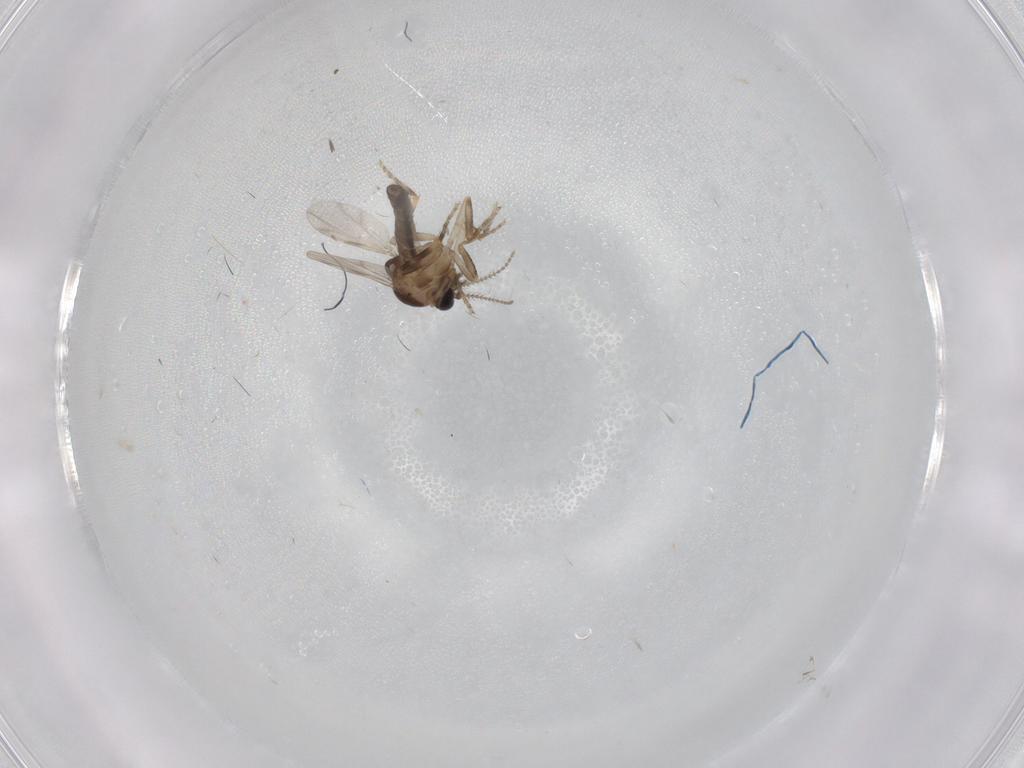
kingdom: Animalia
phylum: Arthropoda
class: Insecta
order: Diptera
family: Ceratopogonidae
